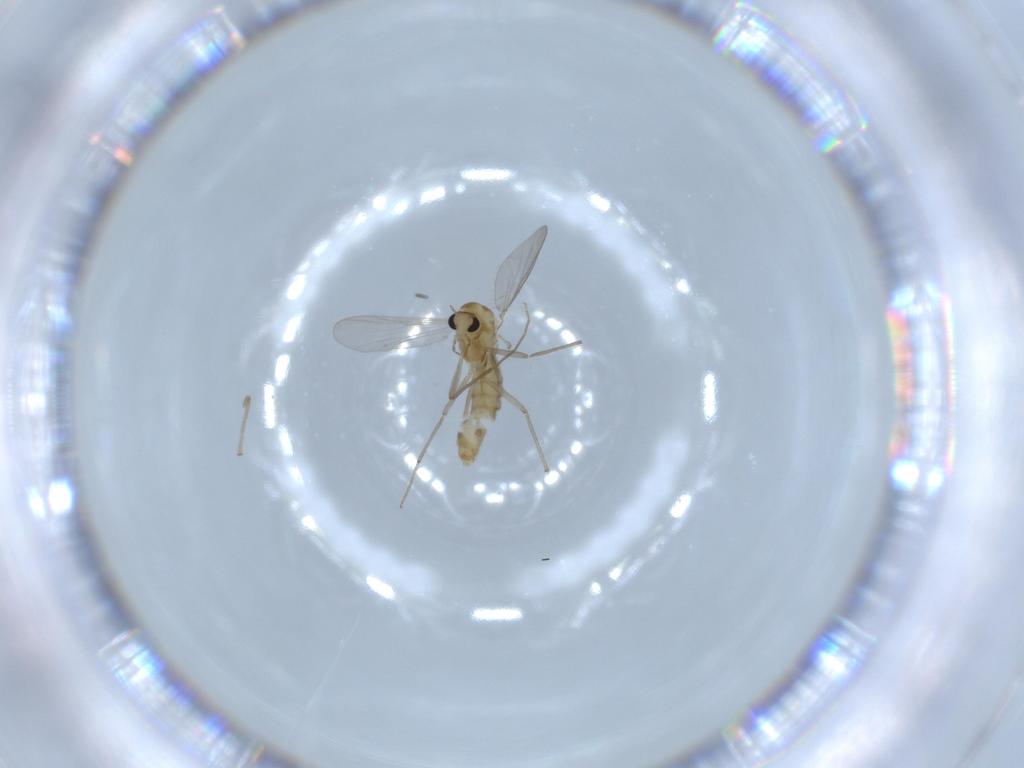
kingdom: Animalia
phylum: Arthropoda
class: Insecta
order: Diptera
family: Chironomidae
